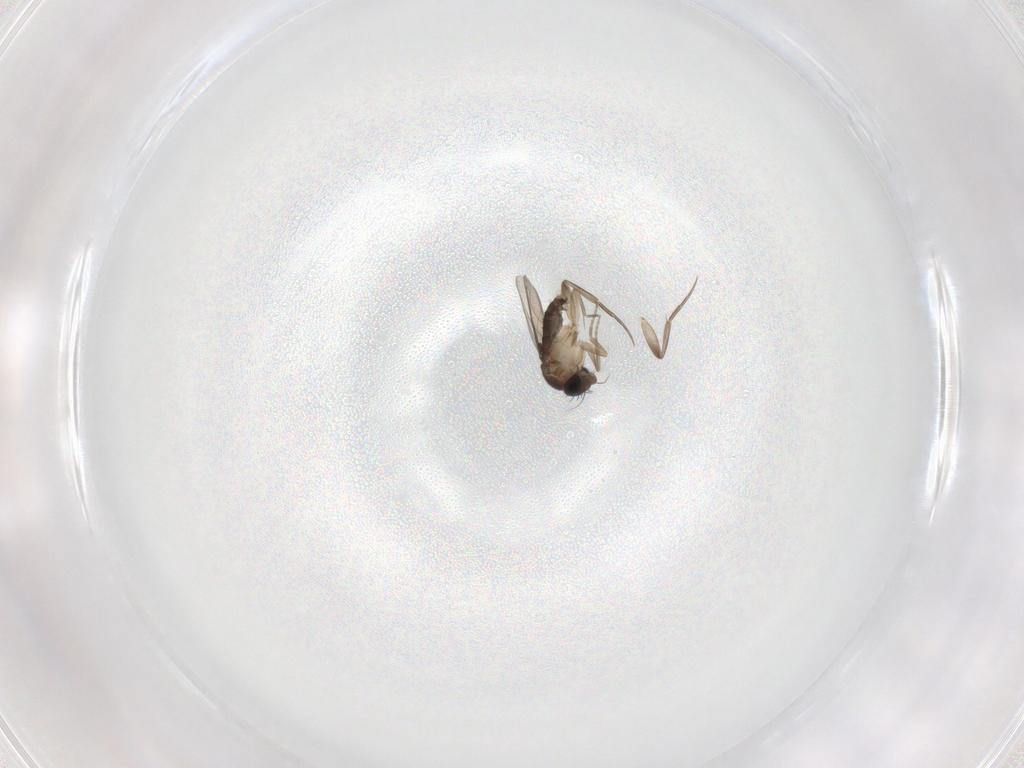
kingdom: Animalia
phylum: Arthropoda
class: Insecta
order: Diptera
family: Phoridae
